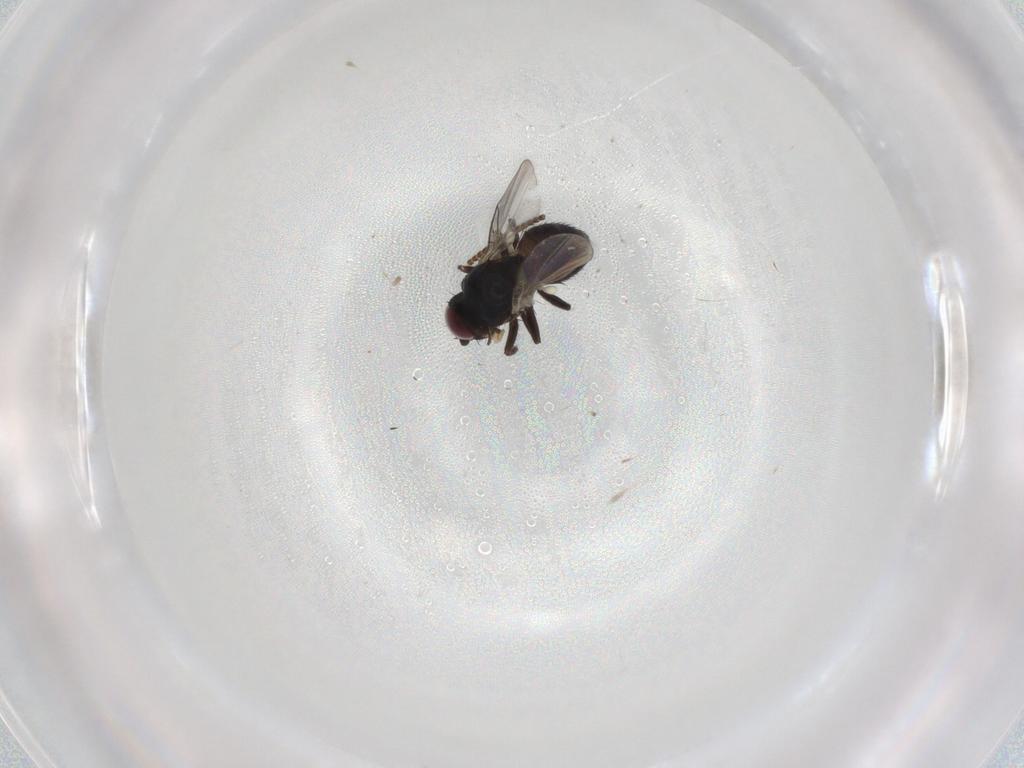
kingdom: Animalia
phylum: Arthropoda
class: Insecta
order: Diptera
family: Agromyzidae
